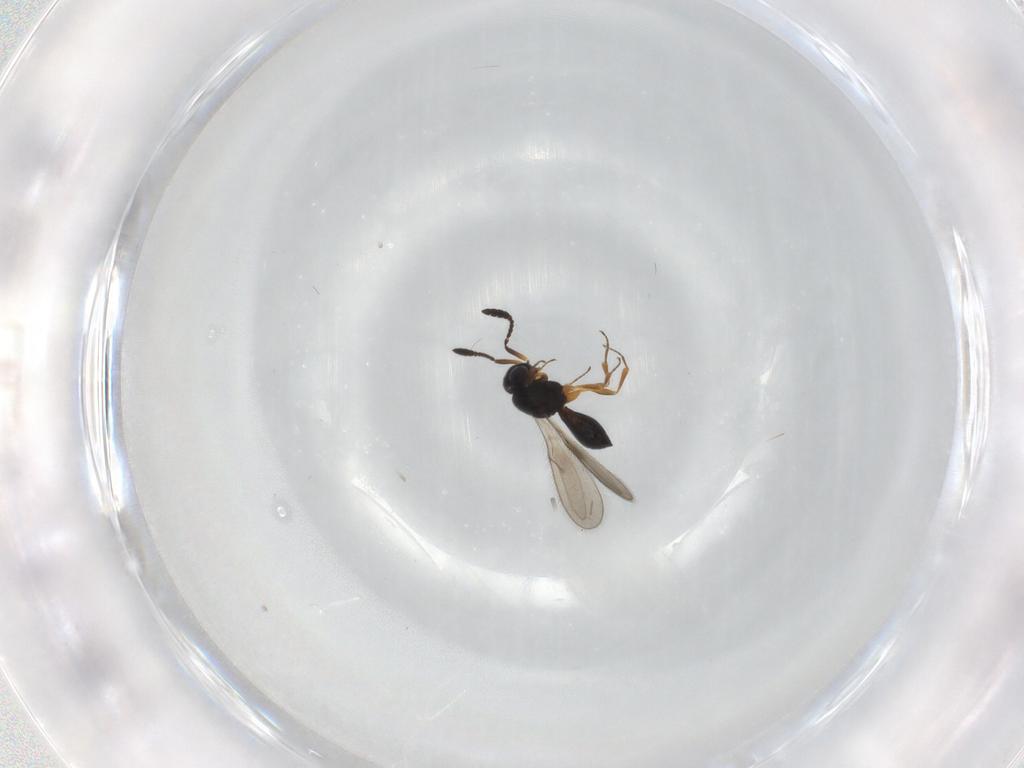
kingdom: Animalia
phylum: Arthropoda
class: Insecta
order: Hymenoptera
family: Scelionidae
